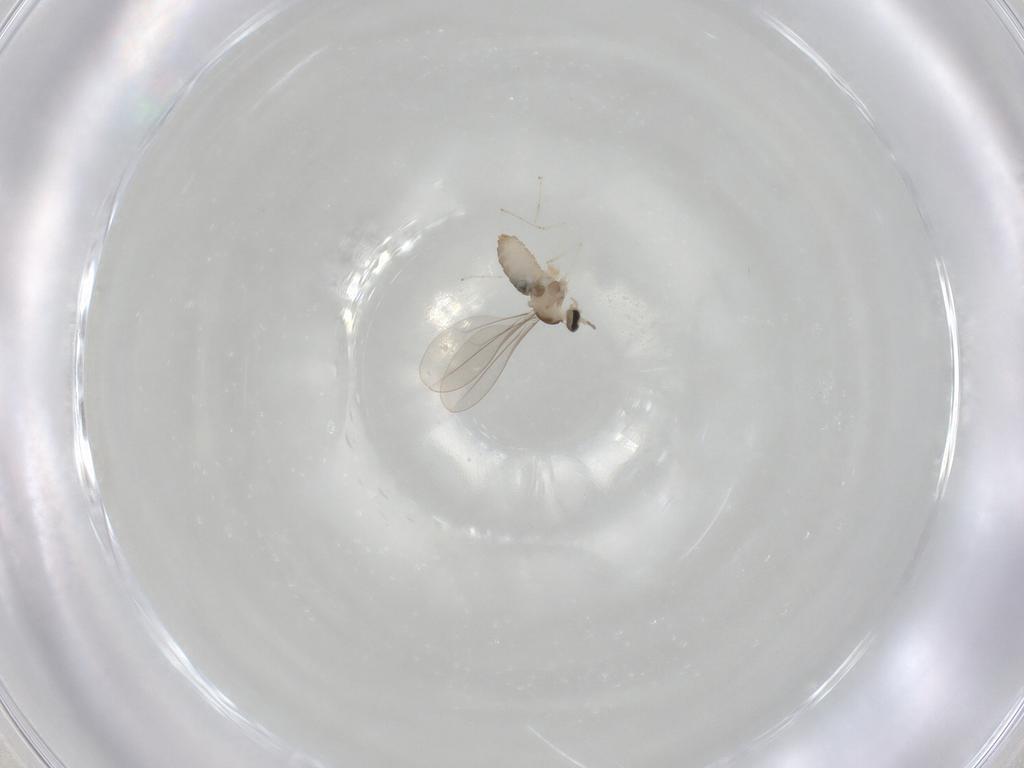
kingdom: Animalia
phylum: Arthropoda
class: Insecta
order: Diptera
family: Cecidomyiidae
